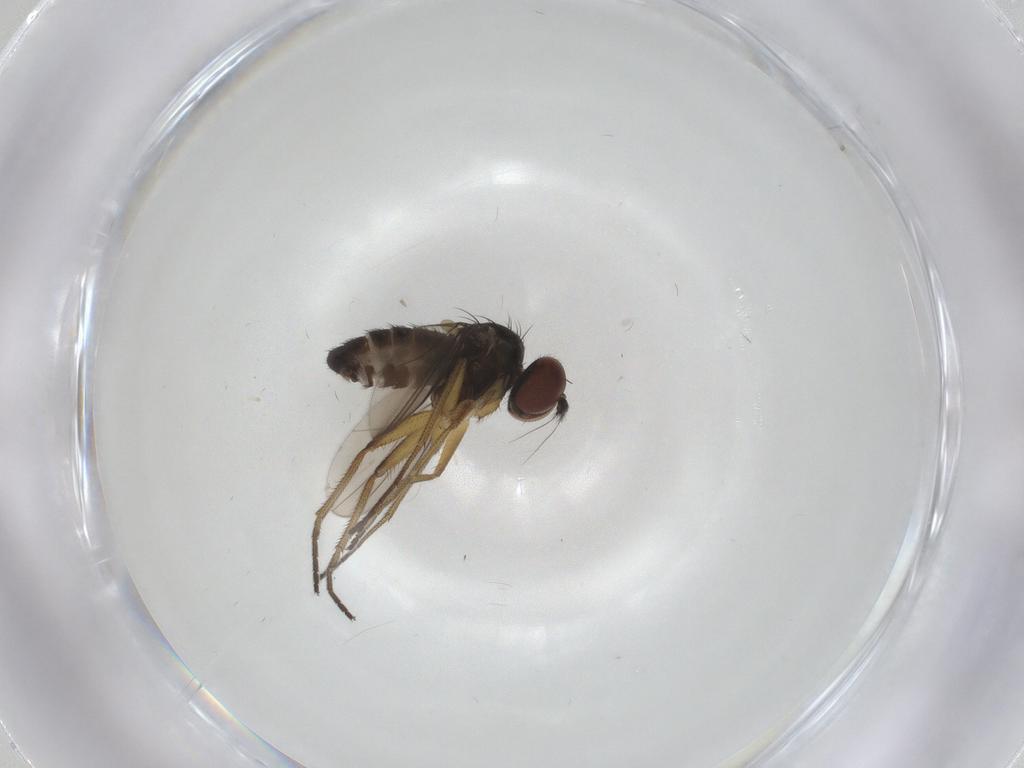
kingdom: Animalia
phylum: Arthropoda
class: Insecta
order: Diptera
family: Dolichopodidae
